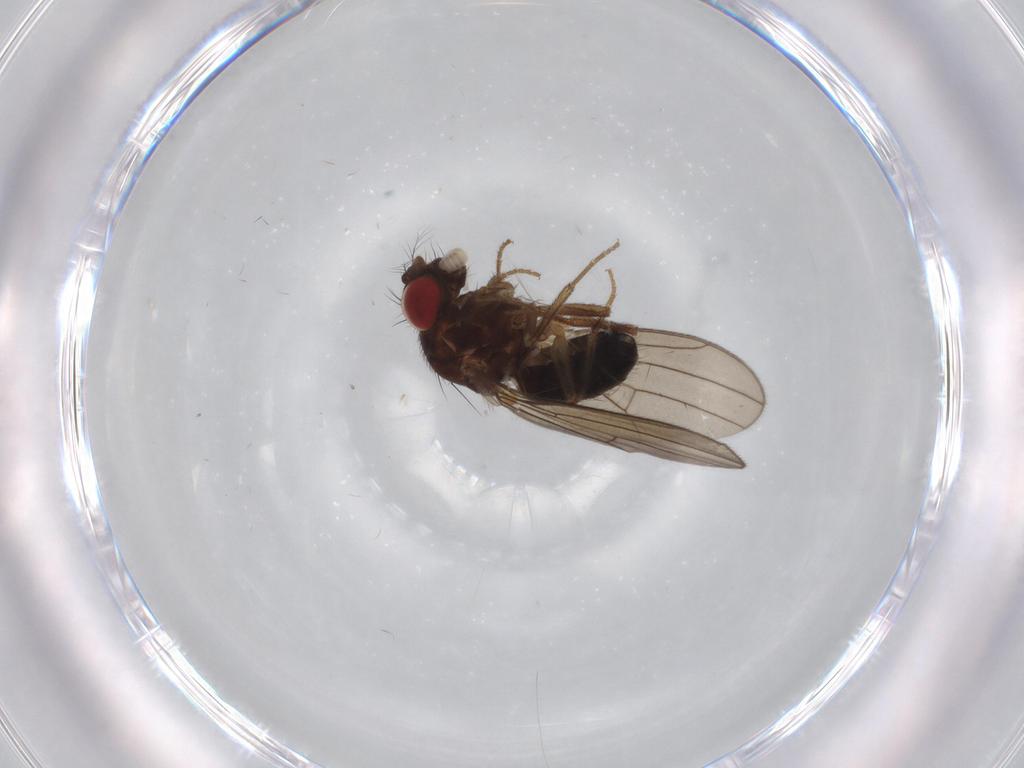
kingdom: Animalia
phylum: Arthropoda
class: Insecta
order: Diptera
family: Drosophilidae
